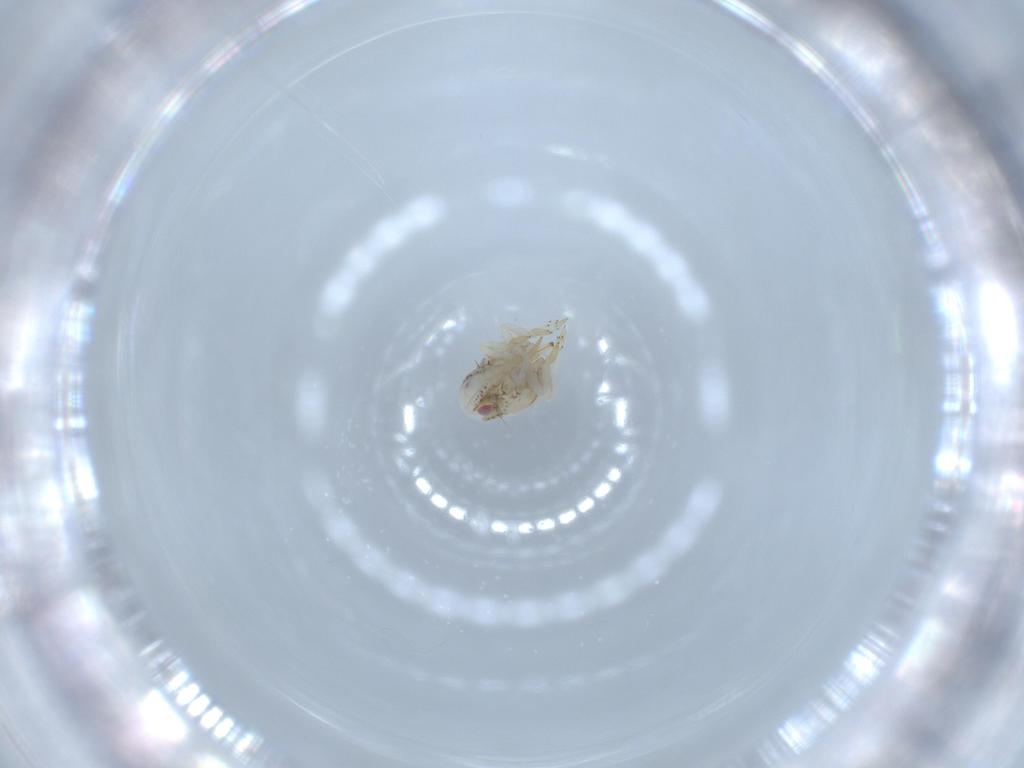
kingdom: Animalia
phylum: Arthropoda
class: Insecta
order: Hemiptera
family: Acanaloniidae
